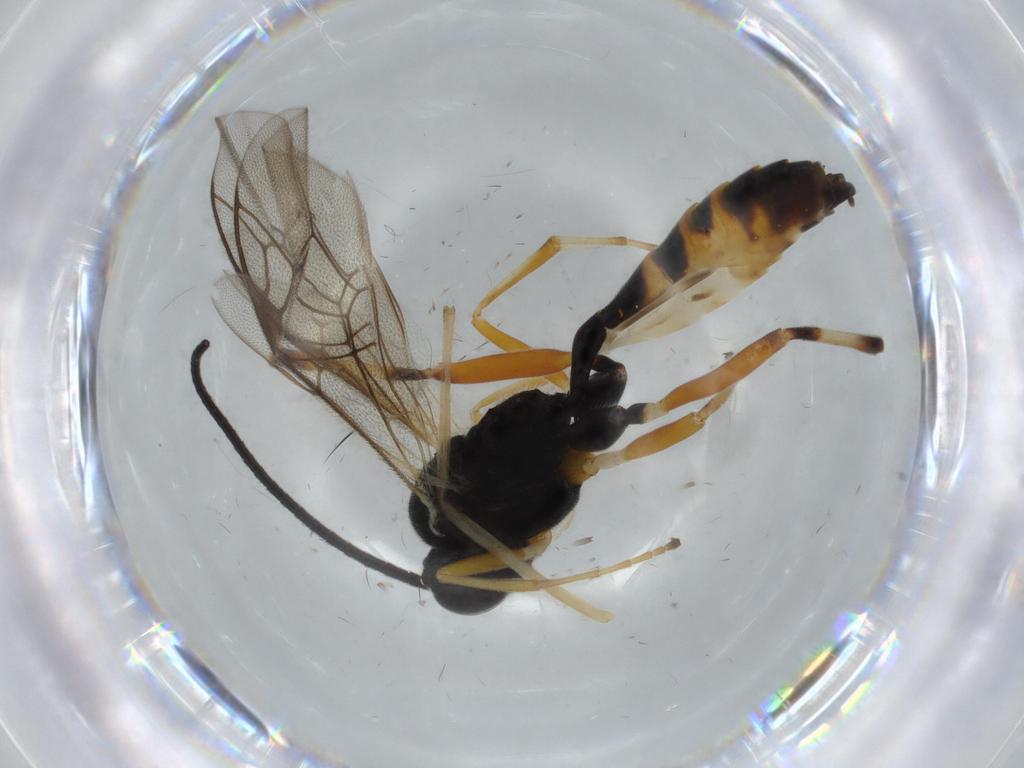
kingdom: Animalia
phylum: Arthropoda
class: Insecta
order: Hymenoptera
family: Ichneumonidae
